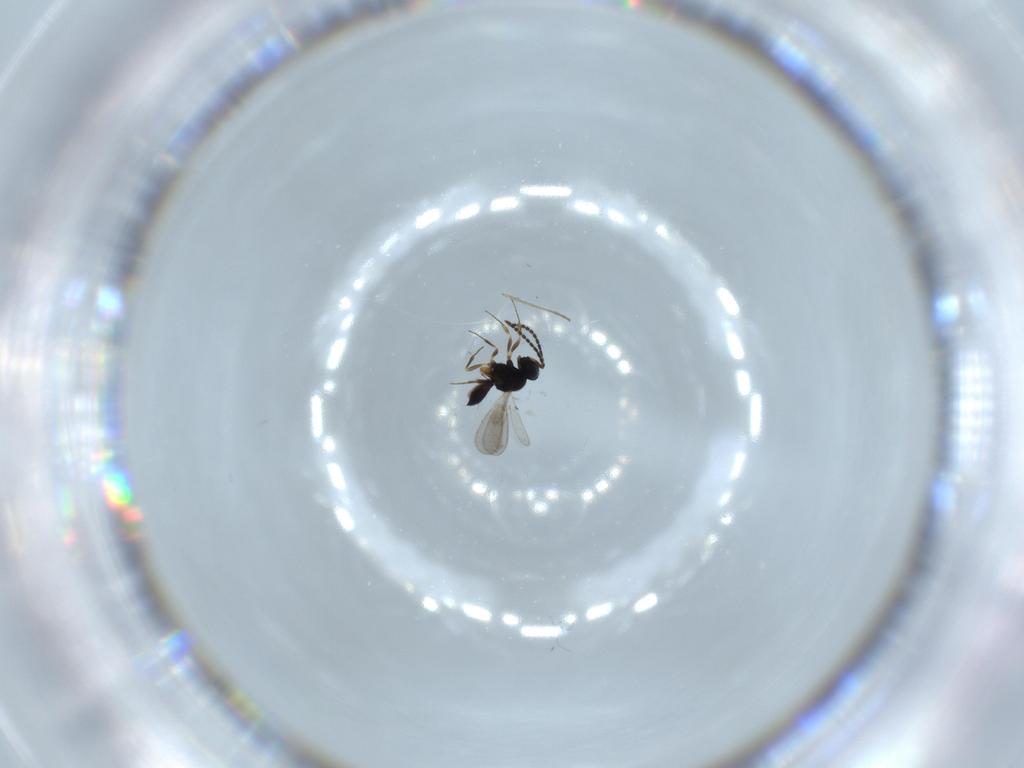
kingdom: Animalia
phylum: Arthropoda
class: Insecta
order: Hymenoptera
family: Scelionidae
